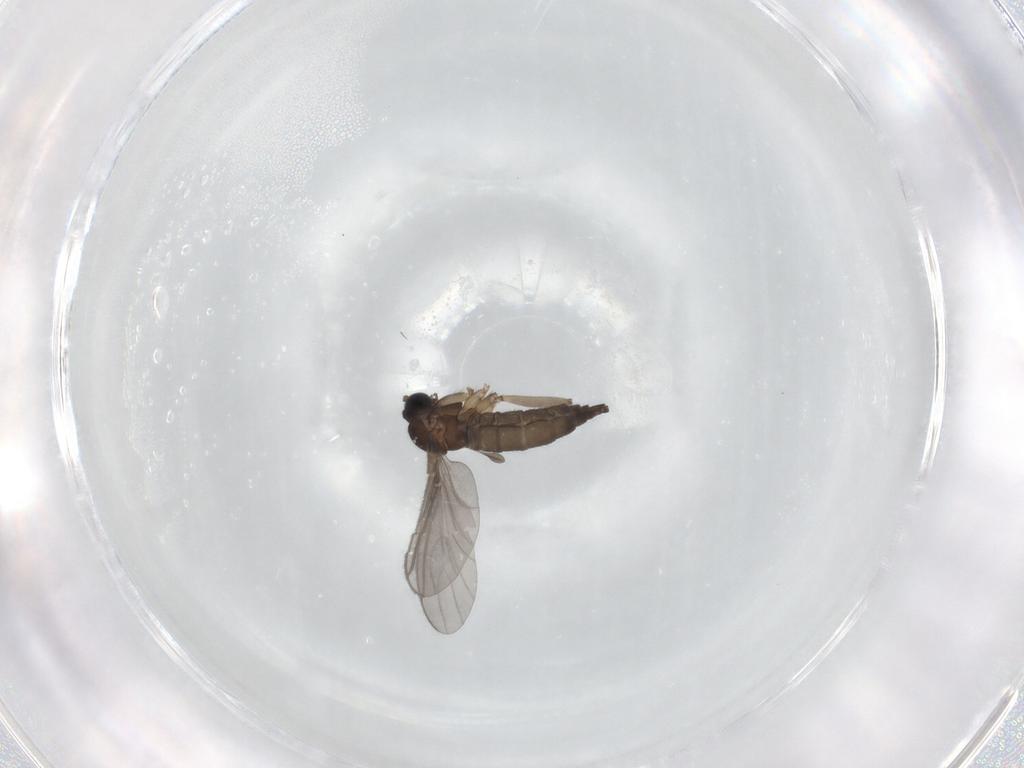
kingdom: Animalia
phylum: Arthropoda
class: Insecta
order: Diptera
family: Sciaridae
